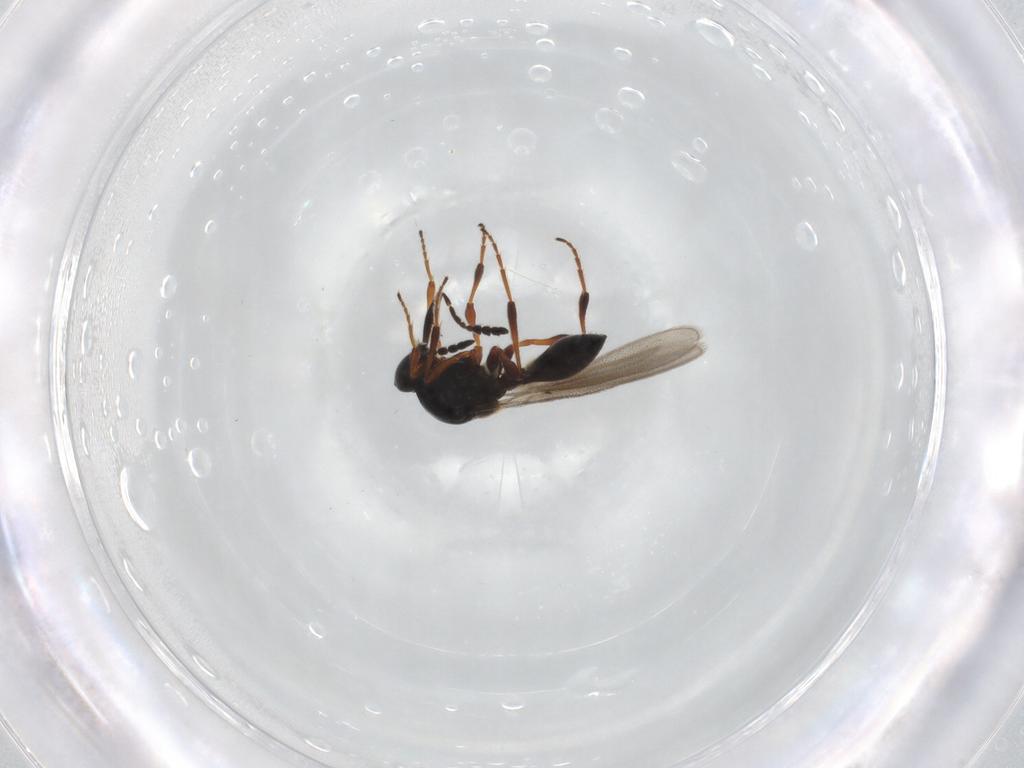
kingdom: Animalia
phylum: Arthropoda
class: Insecta
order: Hymenoptera
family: Platygastridae
